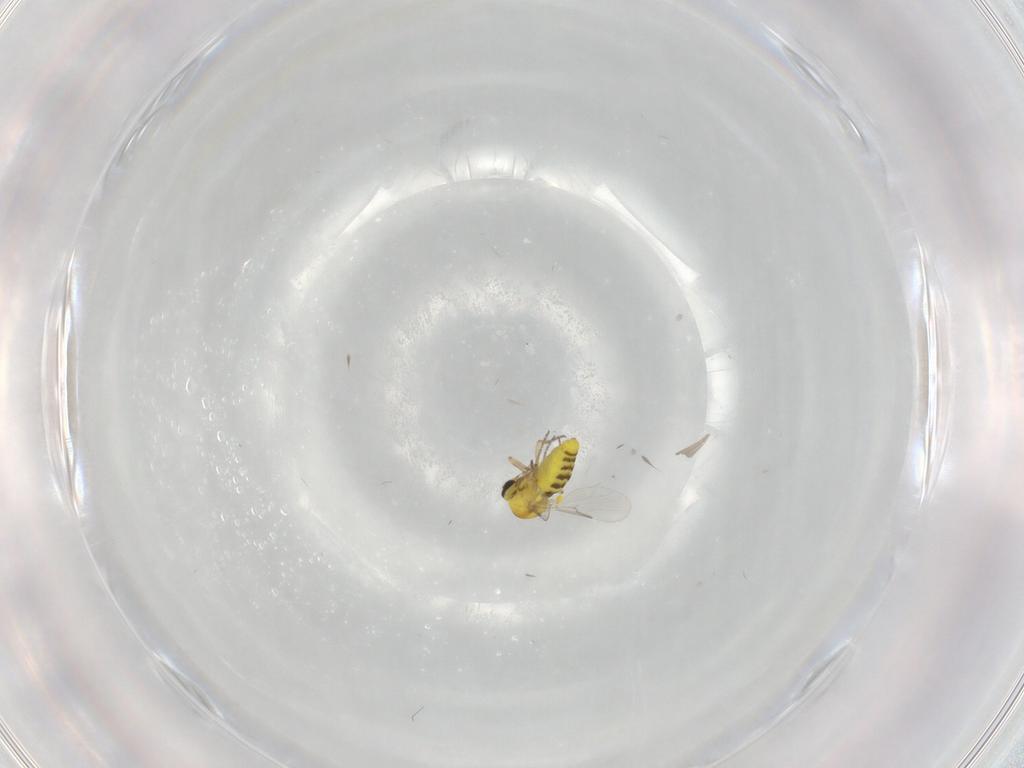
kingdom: Animalia
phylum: Arthropoda
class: Insecta
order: Diptera
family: Ceratopogonidae
